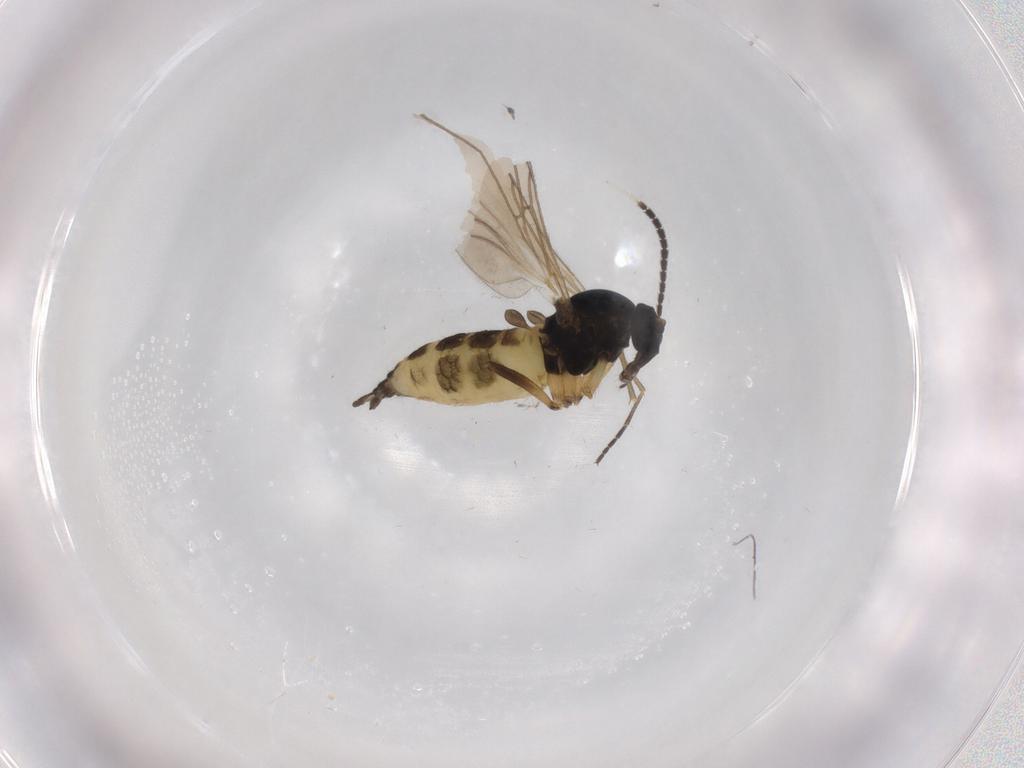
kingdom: Animalia
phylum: Arthropoda
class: Insecta
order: Diptera
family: Sciaridae
